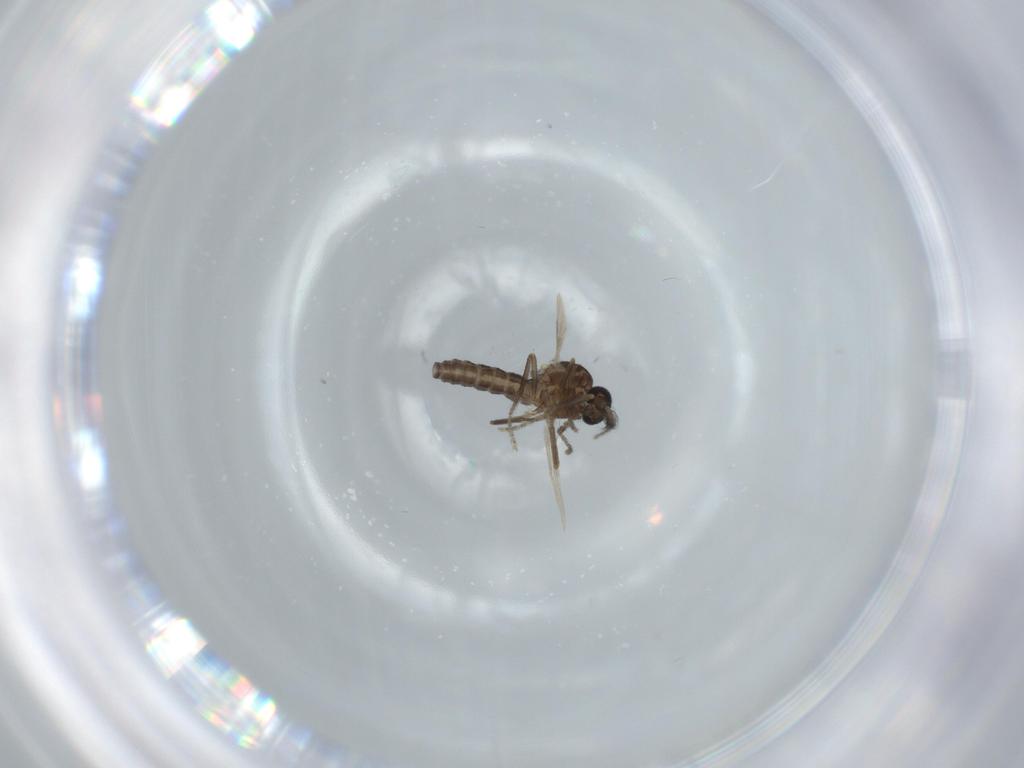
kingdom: Animalia
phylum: Arthropoda
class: Insecta
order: Diptera
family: Ceratopogonidae
